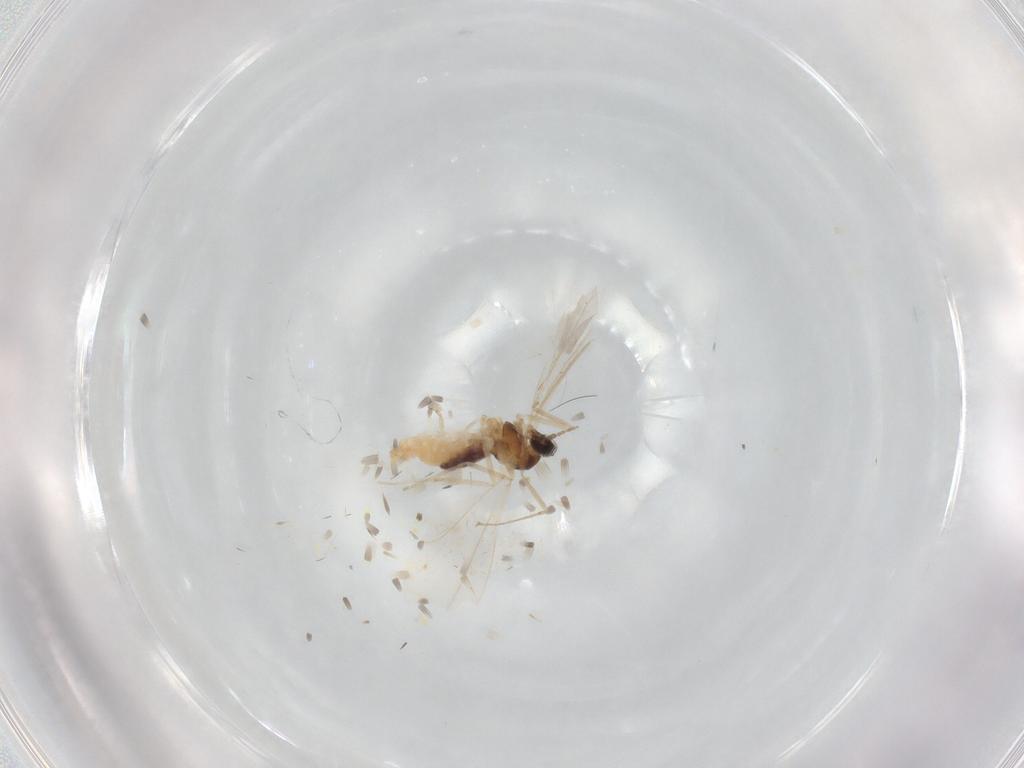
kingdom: Animalia
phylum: Arthropoda
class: Insecta
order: Diptera
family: Cecidomyiidae
